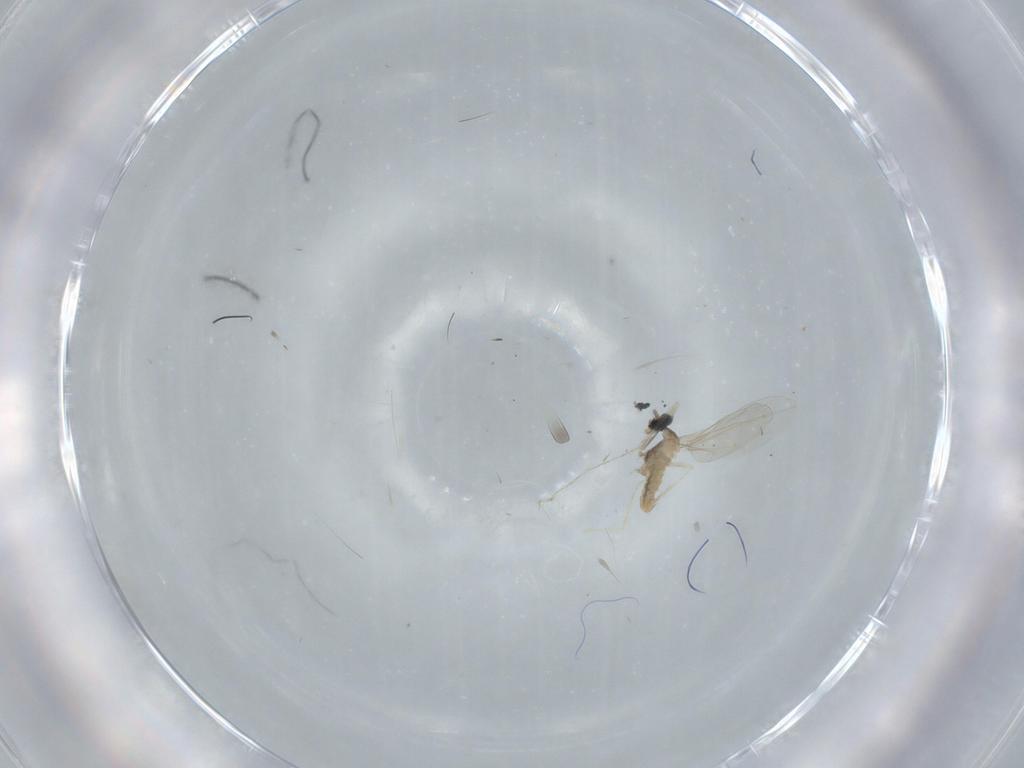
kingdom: Animalia
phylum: Arthropoda
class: Insecta
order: Diptera
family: Cecidomyiidae
